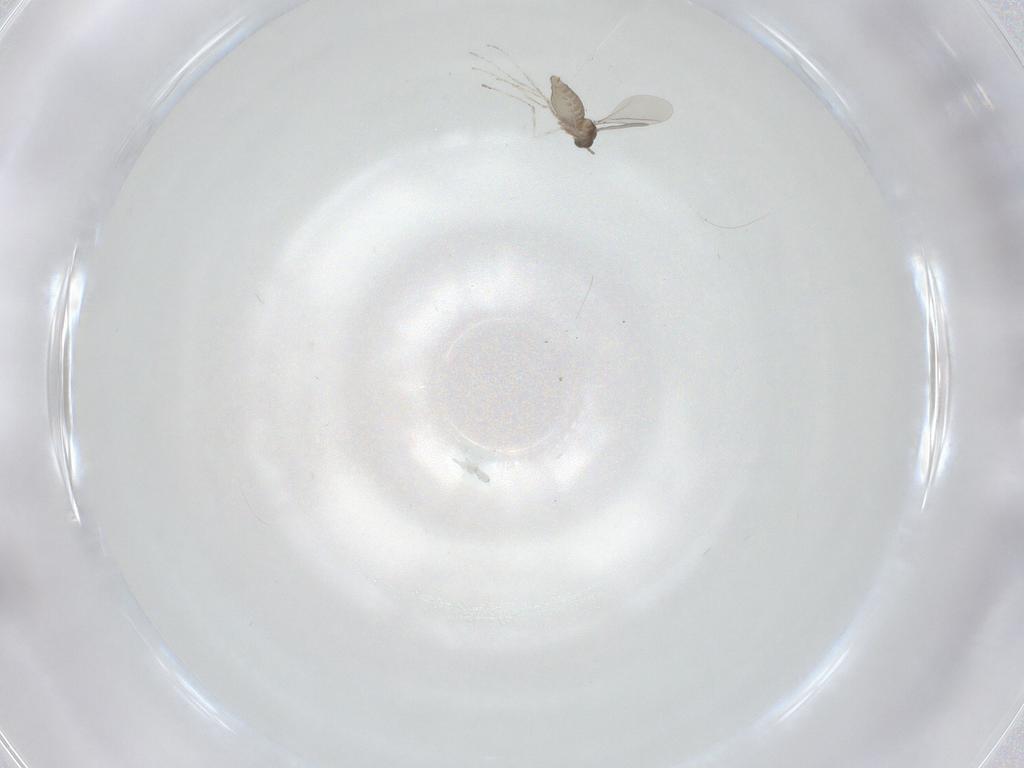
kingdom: Animalia
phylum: Arthropoda
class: Insecta
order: Diptera
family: Cecidomyiidae
